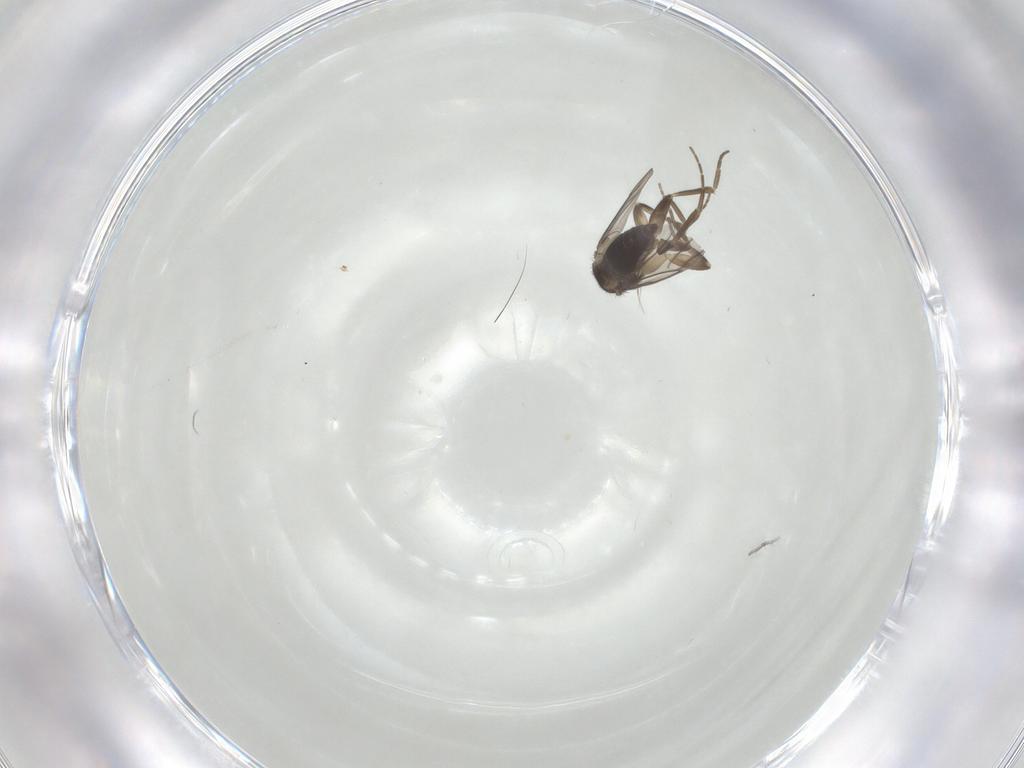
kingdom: Animalia
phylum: Arthropoda
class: Insecta
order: Diptera
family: Phoridae
